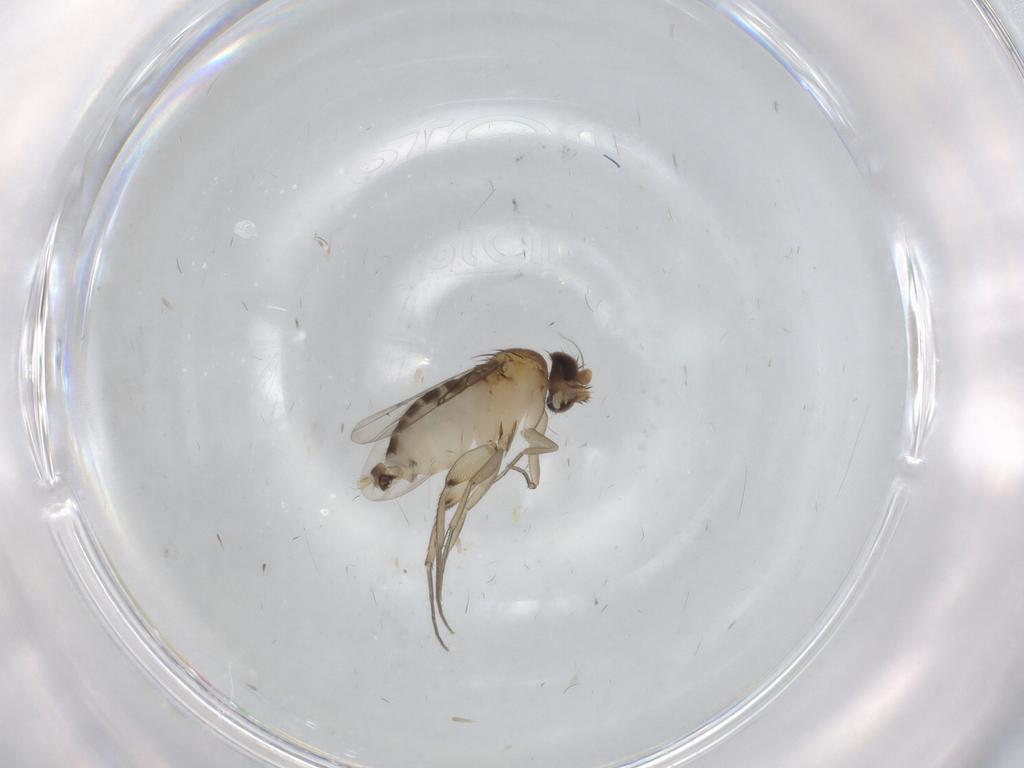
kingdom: Animalia
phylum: Arthropoda
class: Insecta
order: Diptera
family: Phoridae
